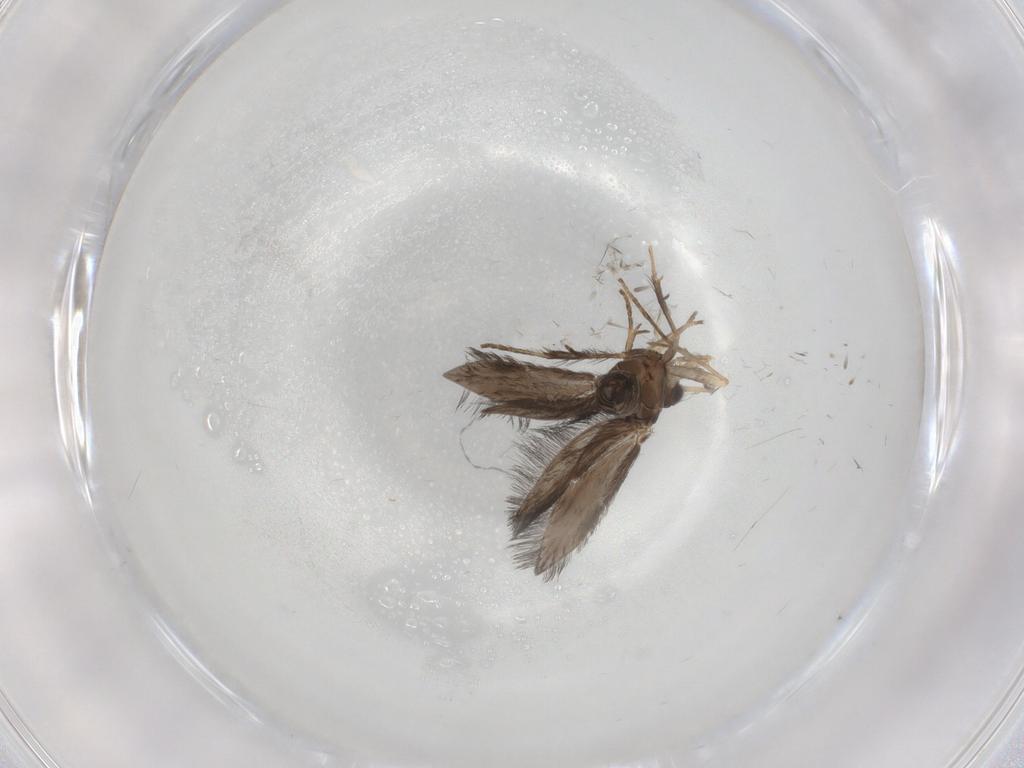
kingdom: Animalia
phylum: Arthropoda
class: Insecta
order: Trichoptera
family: Hydroptilidae
